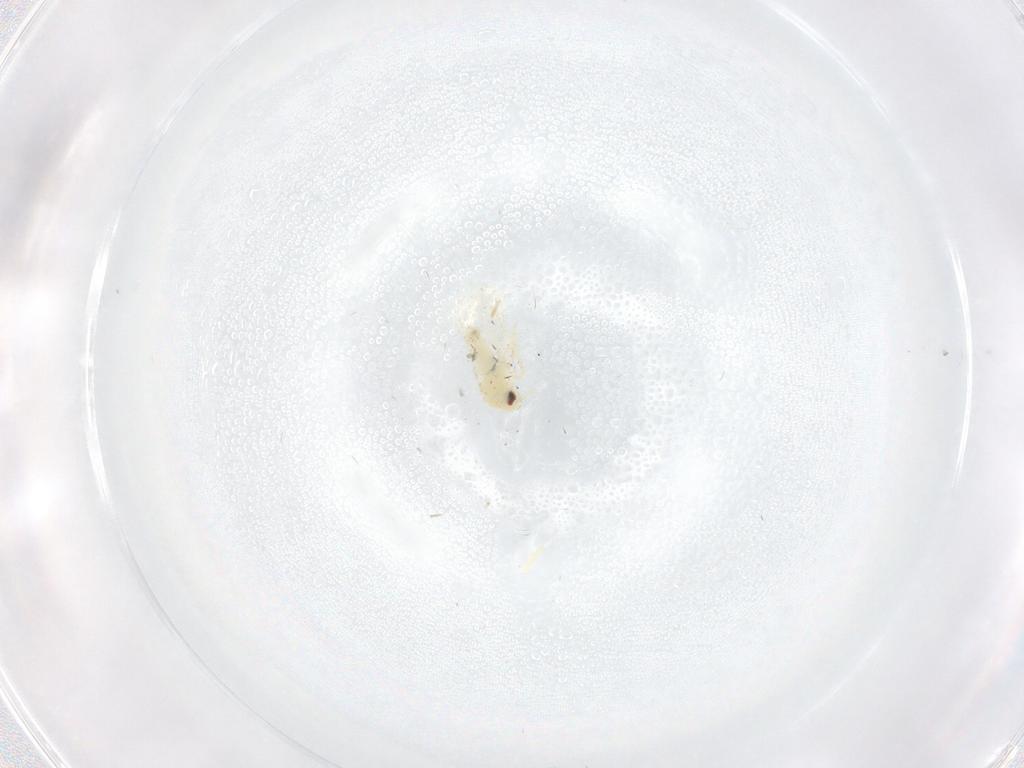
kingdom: Animalia
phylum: Arthropoda
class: Insecta
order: Hemiptera
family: Aleyrodidae
